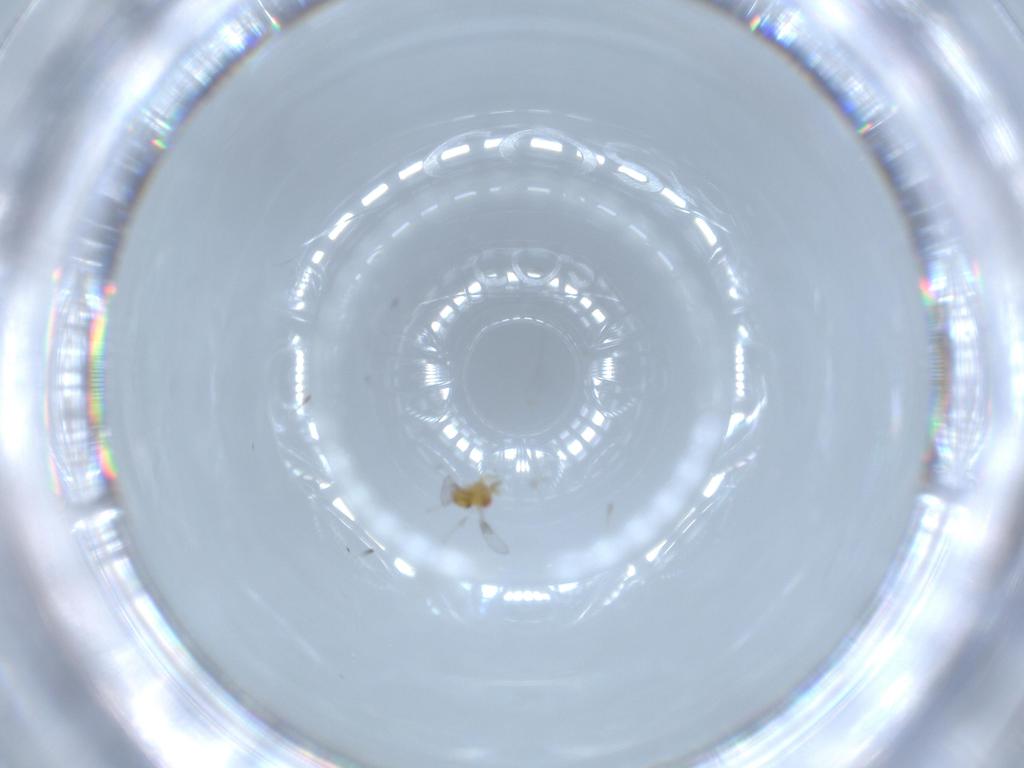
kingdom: Animalia
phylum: Arthropoda
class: Insecta
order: Hymenoptera
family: Trichogrammatidae
